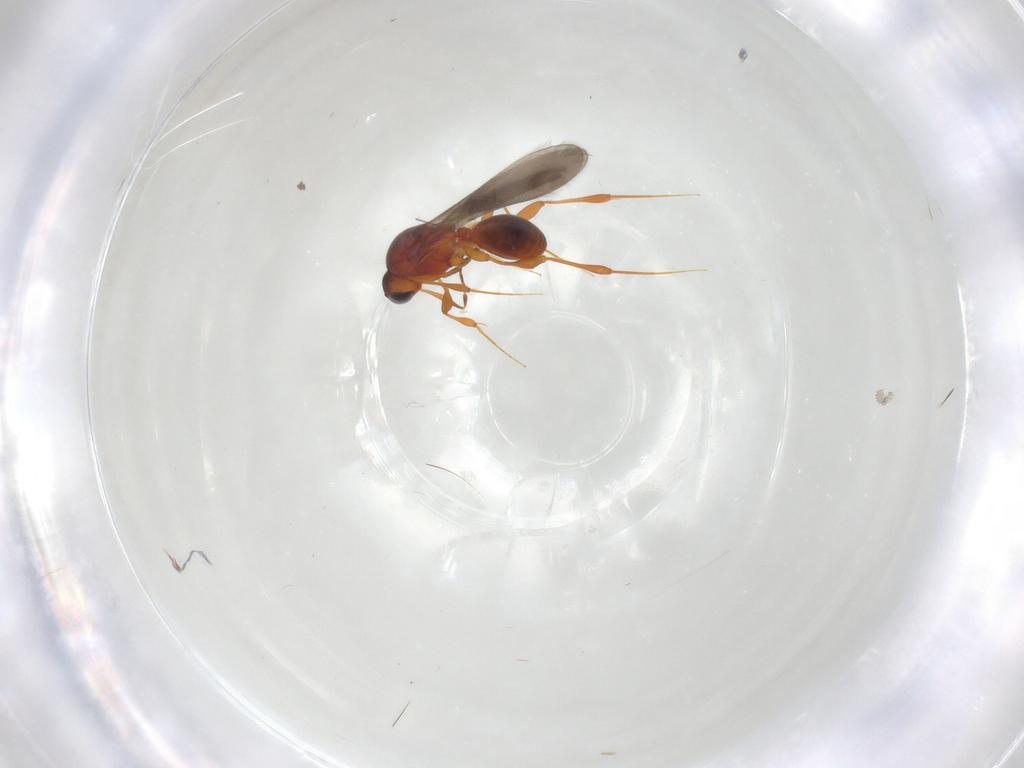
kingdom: Animalia
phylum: Arthropoda
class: Insecta
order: Hymenoptera
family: Platygastridae
